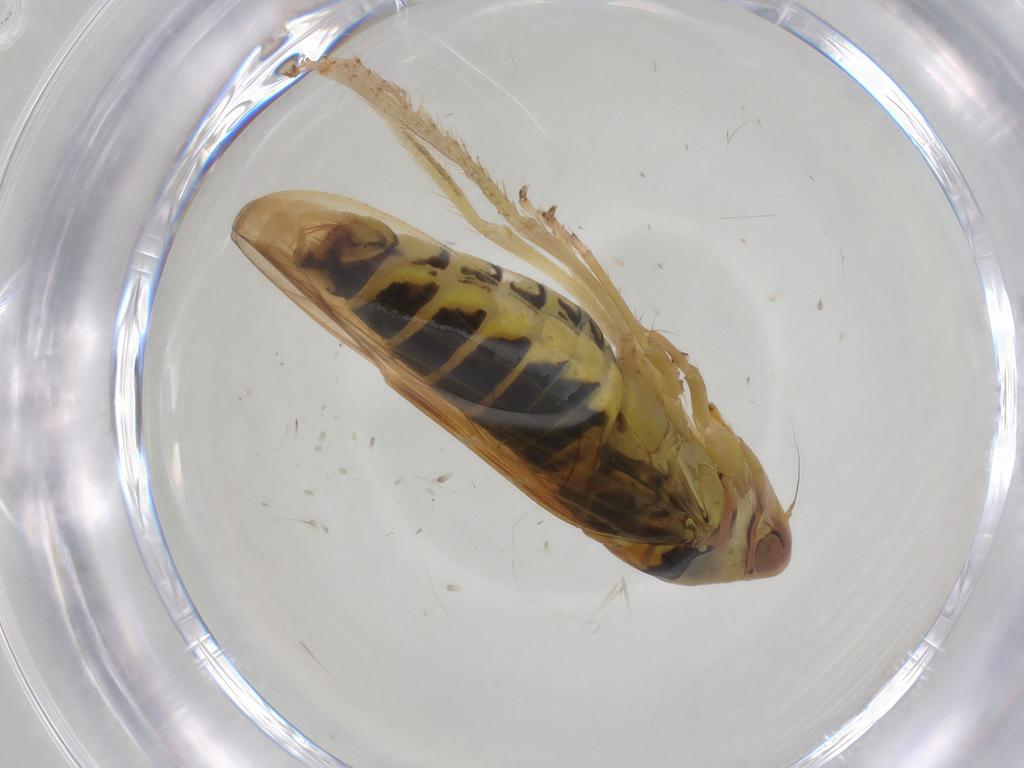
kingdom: Animalia
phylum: Arthropoda
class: Insecta
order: Hemiptera
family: Cicadellidae
